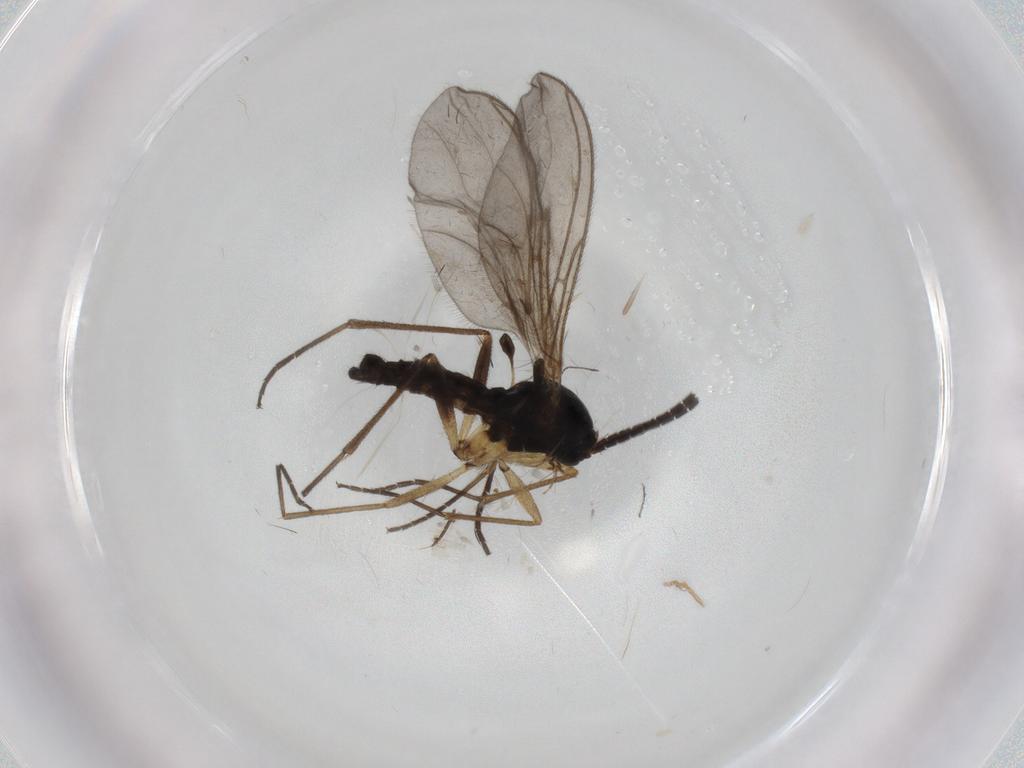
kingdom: Animalia
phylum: Arthropoda
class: Insecta
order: Diptera
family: Sciaridae
